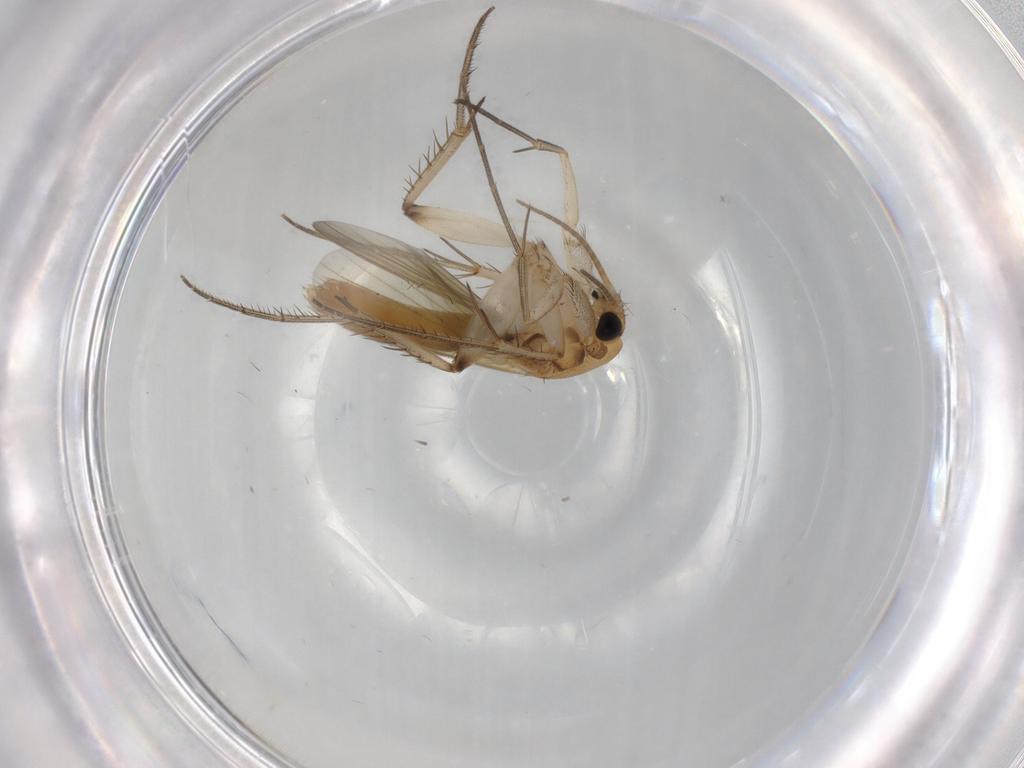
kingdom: Animalia
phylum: Arthropoda
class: Insecta
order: Diptera
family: Mycetophilidae
